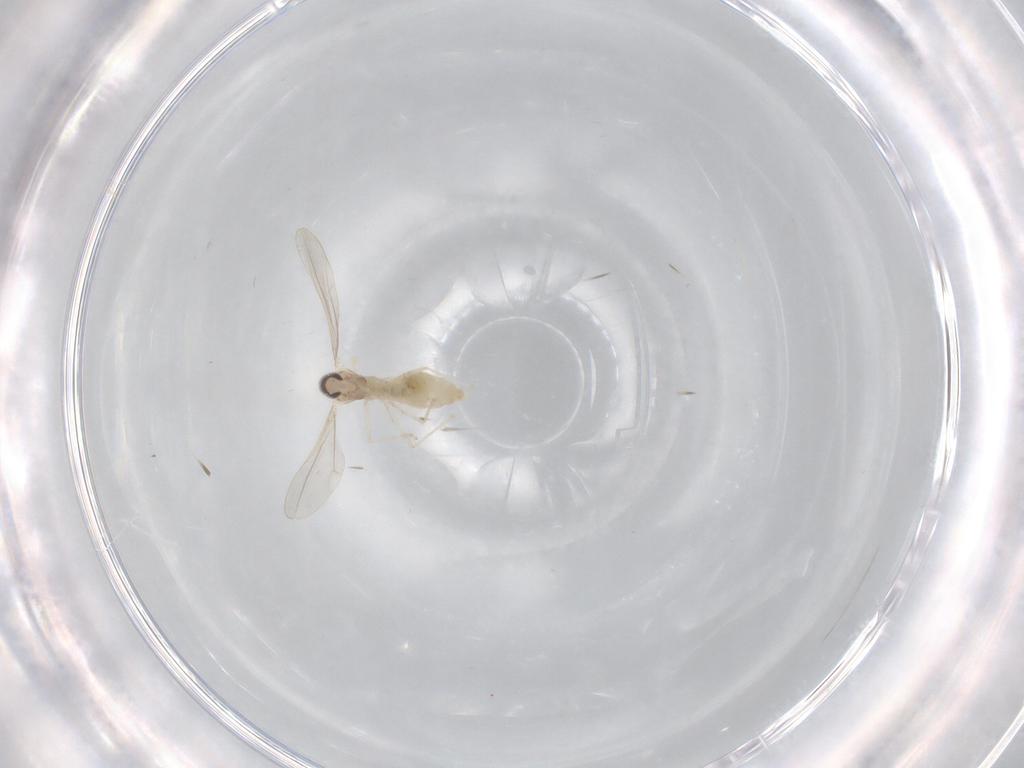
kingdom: Animalia
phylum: Arthropoda
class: Insecta
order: Diptera
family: Cecidomyiidae
